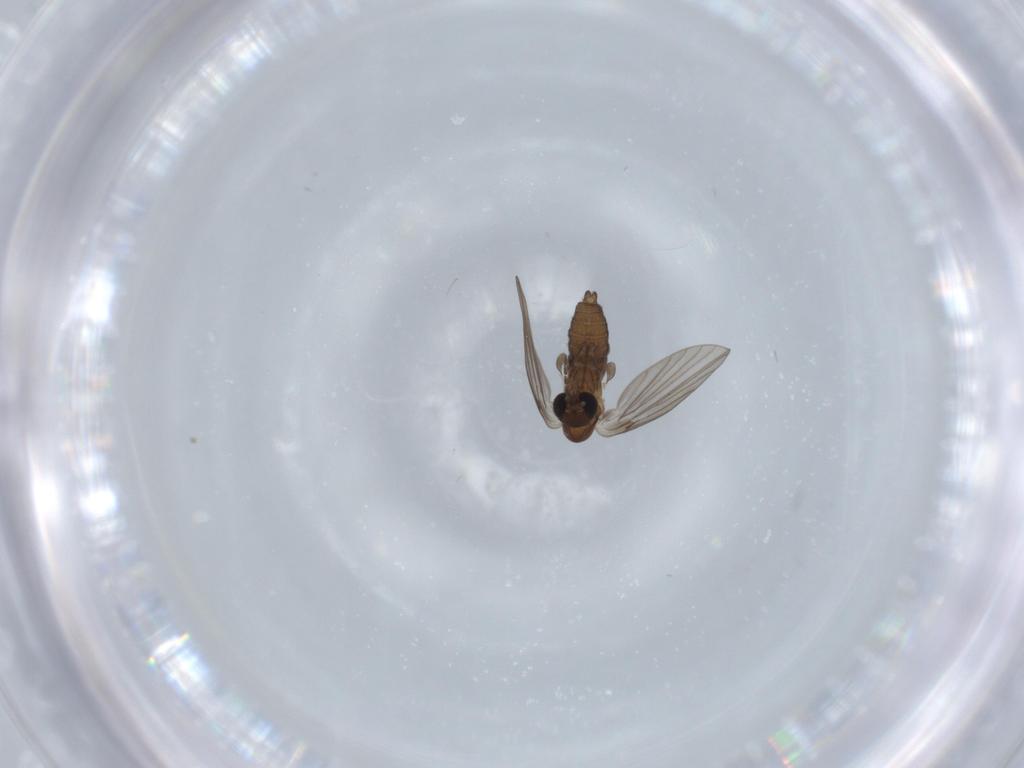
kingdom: Animalia
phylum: Arthropoda
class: Insecta
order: Diptera
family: Psychodidae
